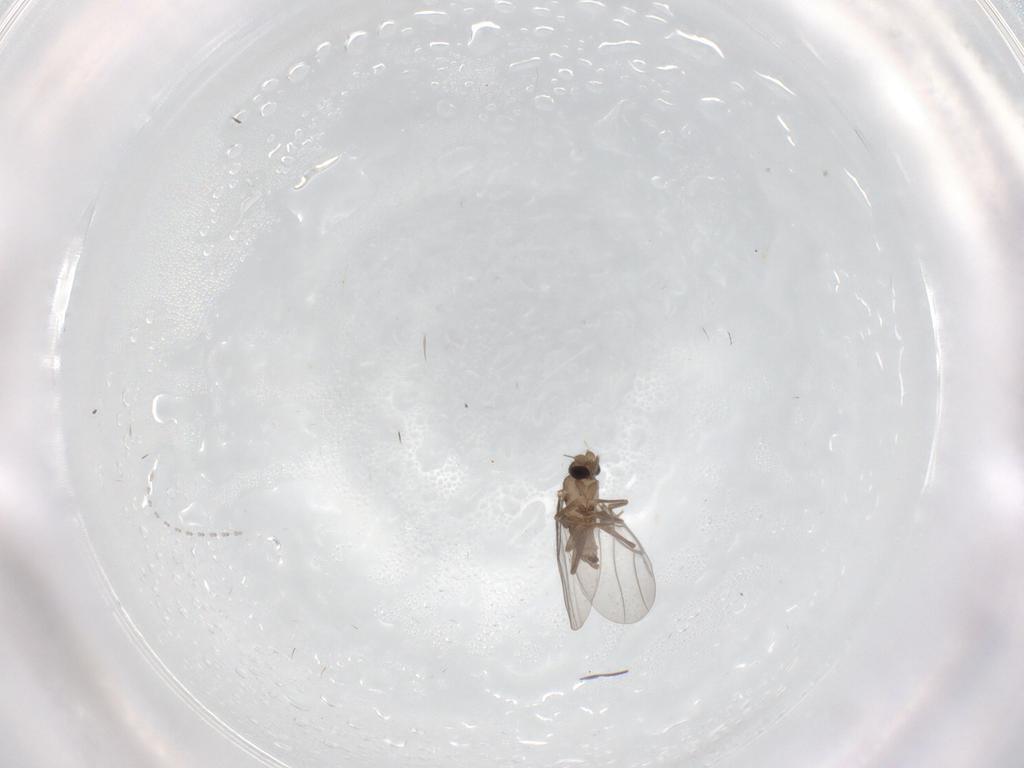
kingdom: Animalia
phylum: Arthropoda
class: Insecta
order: Diptera
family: Cecidomyiidae
